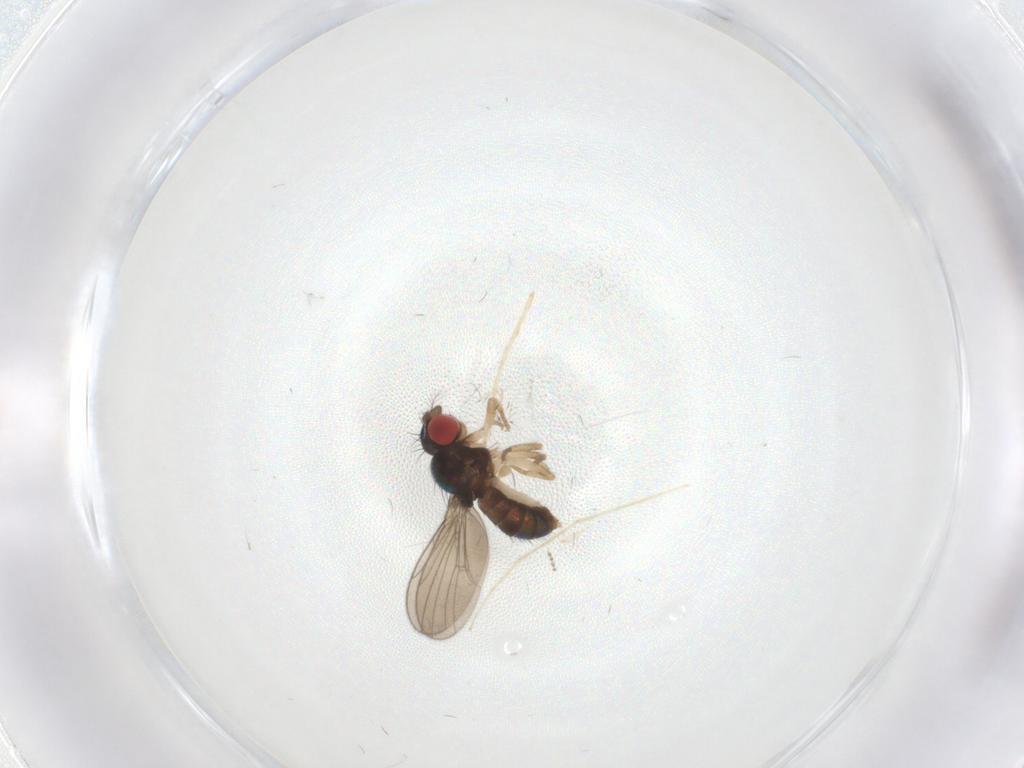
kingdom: Animalia
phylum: Arthropoda
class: Insecta
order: Diptera
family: Drosophilidae
